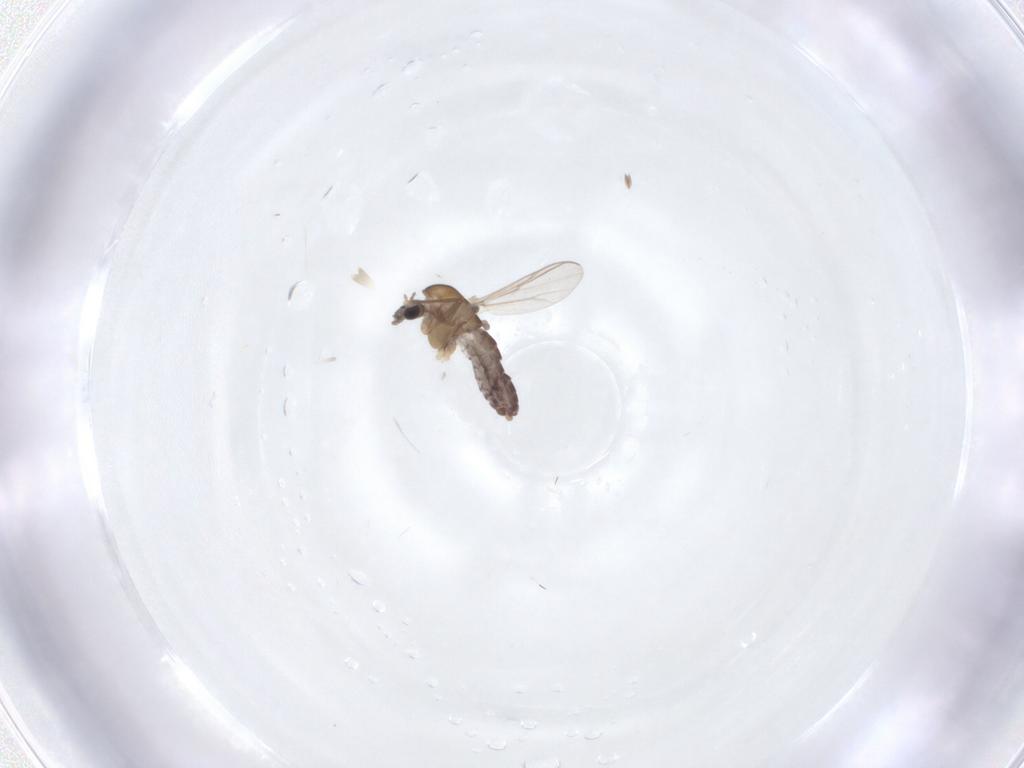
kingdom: Animalia
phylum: Arthropoda
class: Insecta
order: Diptera
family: Chironomidae
